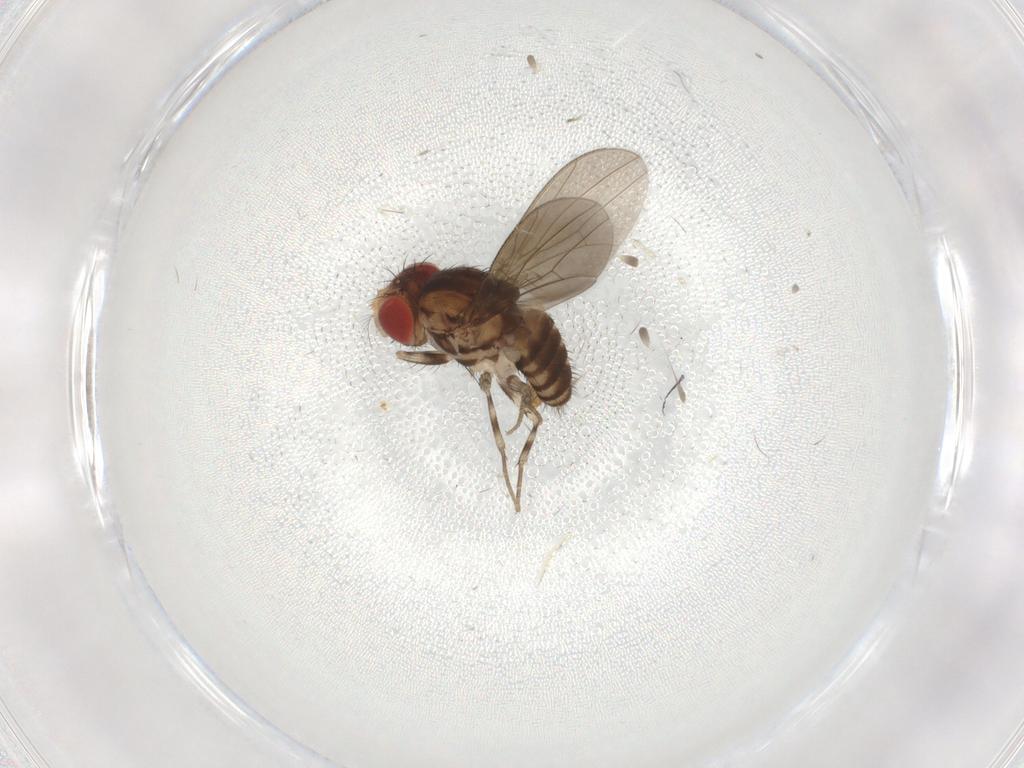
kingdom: Animalia
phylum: Arthropoda
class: Insecta
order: Diptera
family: Drosophilidae
